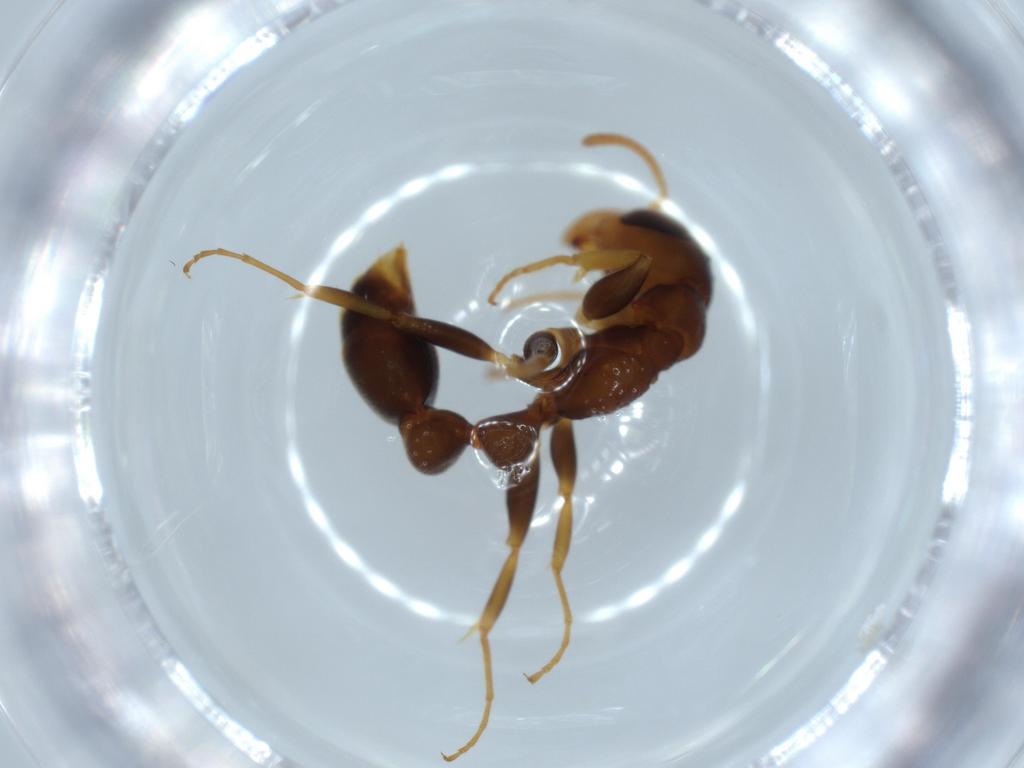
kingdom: Animalia
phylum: Arthropoda
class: Insecta
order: Hymenoptera
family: Formicidae
